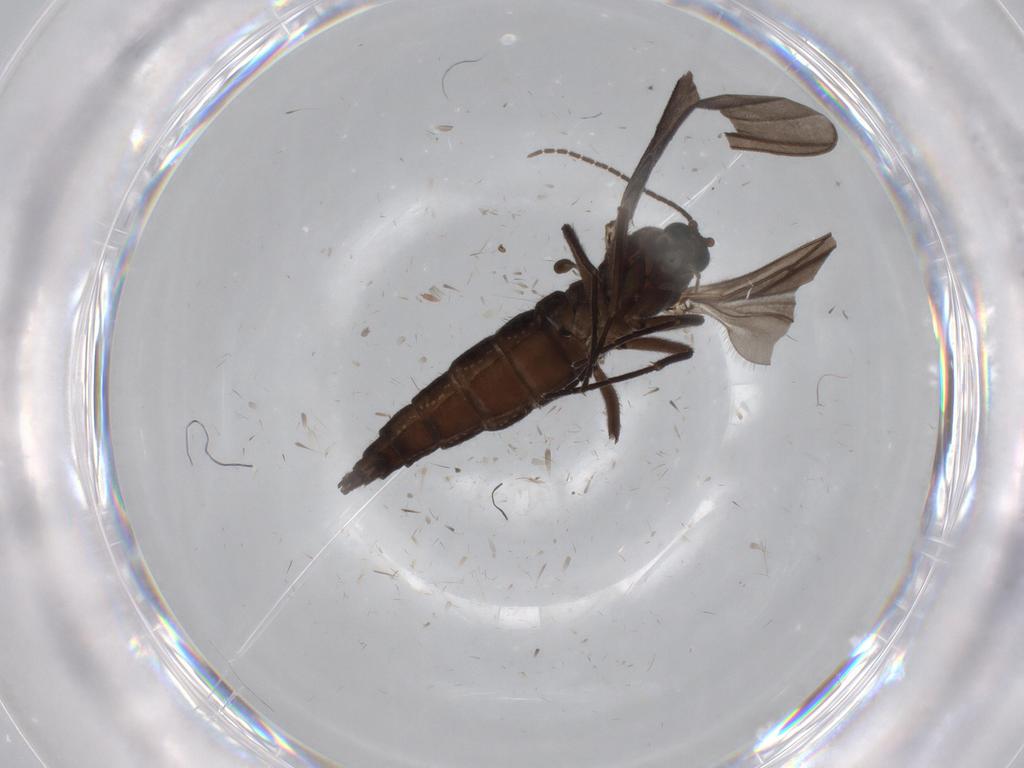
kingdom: Animalia
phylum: Arthropoda
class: Insecta
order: Diptera
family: Sciaridae
